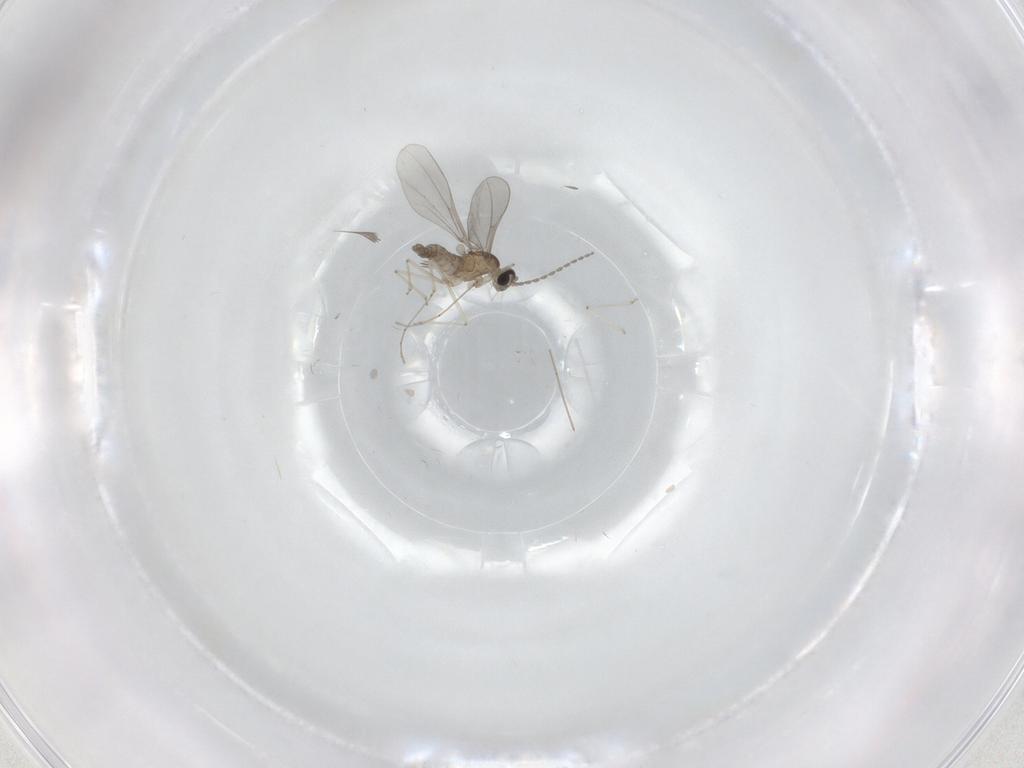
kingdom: Animalia
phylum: Arthropoda
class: Insecta
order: Diptera
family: Cecidomyiidae
